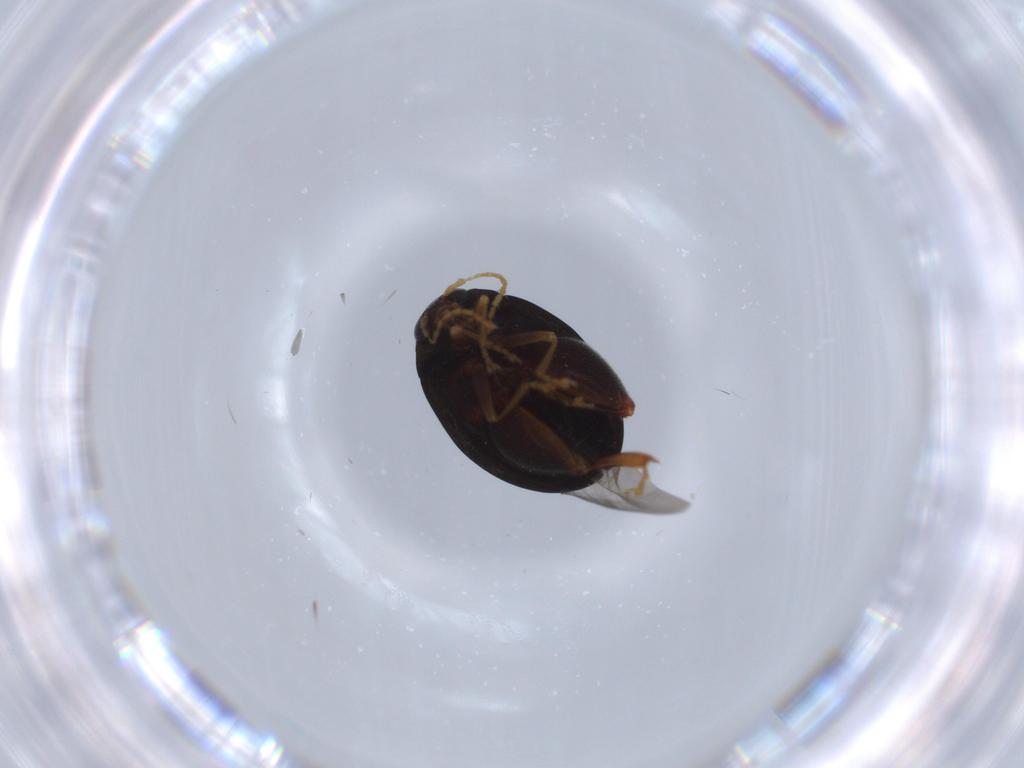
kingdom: Animalia
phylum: Arthropoda
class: Insecta
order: Coleoptera
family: Chrysomelidae
